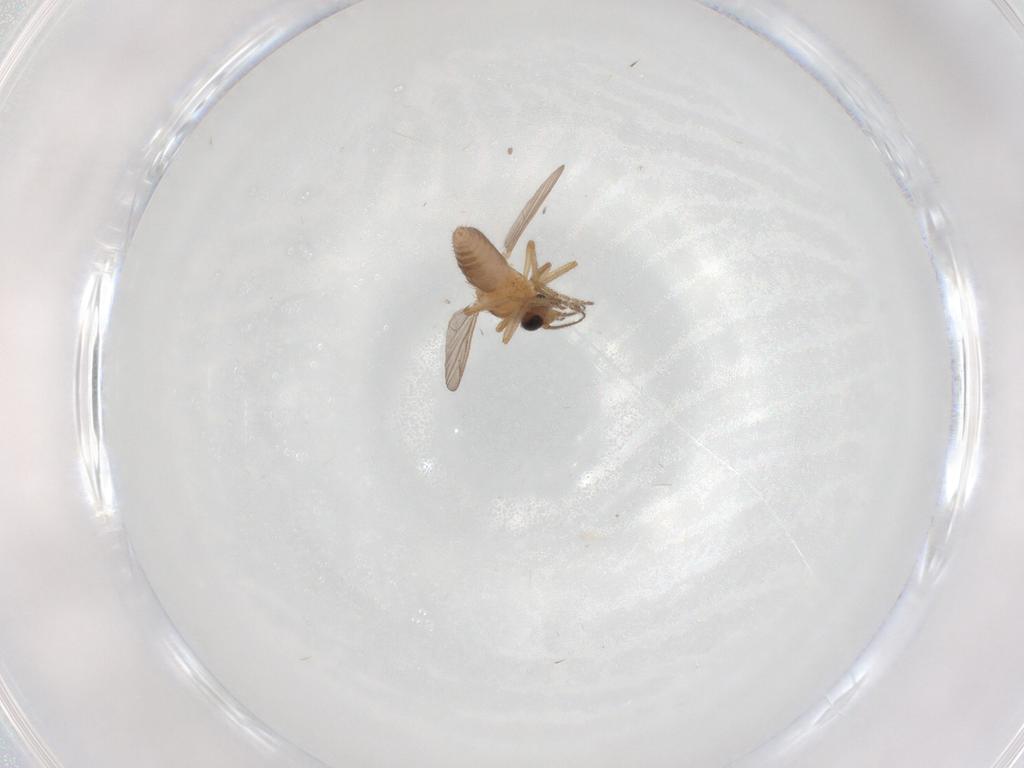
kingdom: Animalia
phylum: Arthropoda
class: Insecta
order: Diptera
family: Ceratopogonidae
